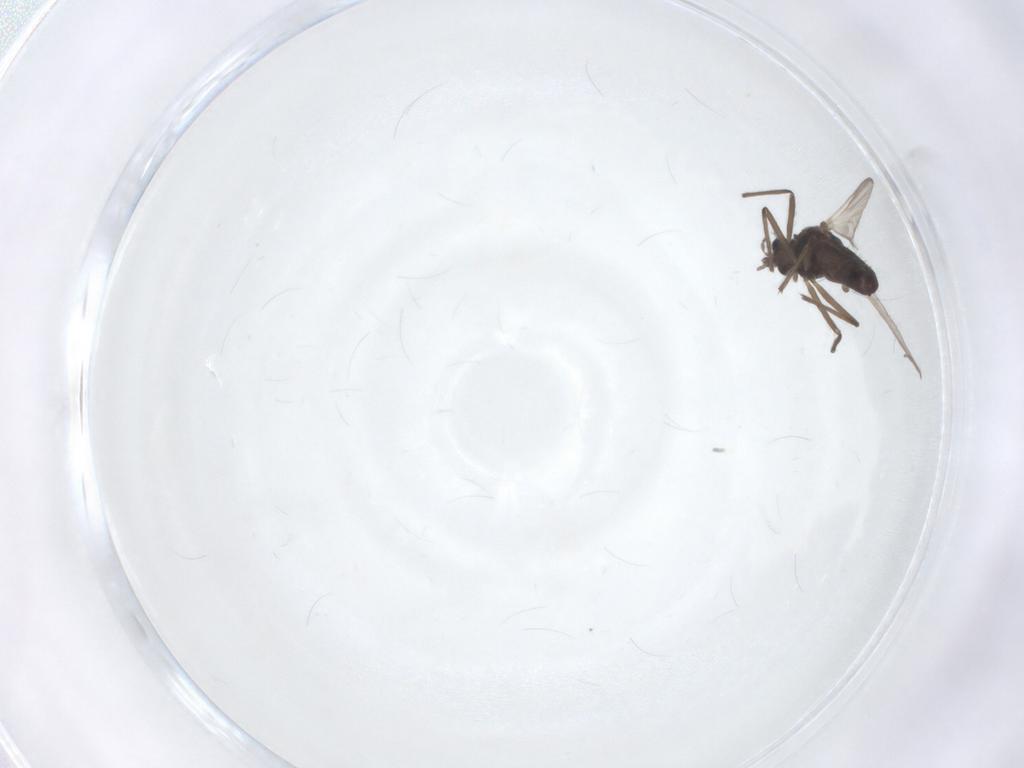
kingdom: Animalia
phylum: Arthropoda
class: Insecta
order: Diptera
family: Chironomidae
